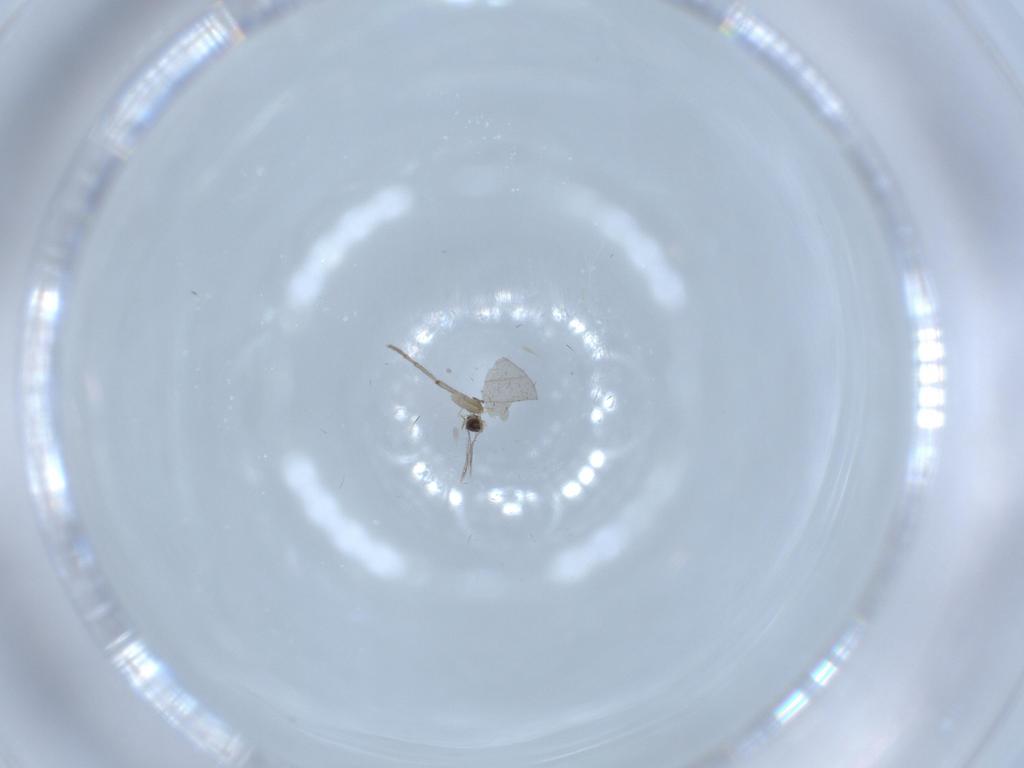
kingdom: Animalia
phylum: Arthropoda
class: Insecta
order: Diptera
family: Chironomidae
